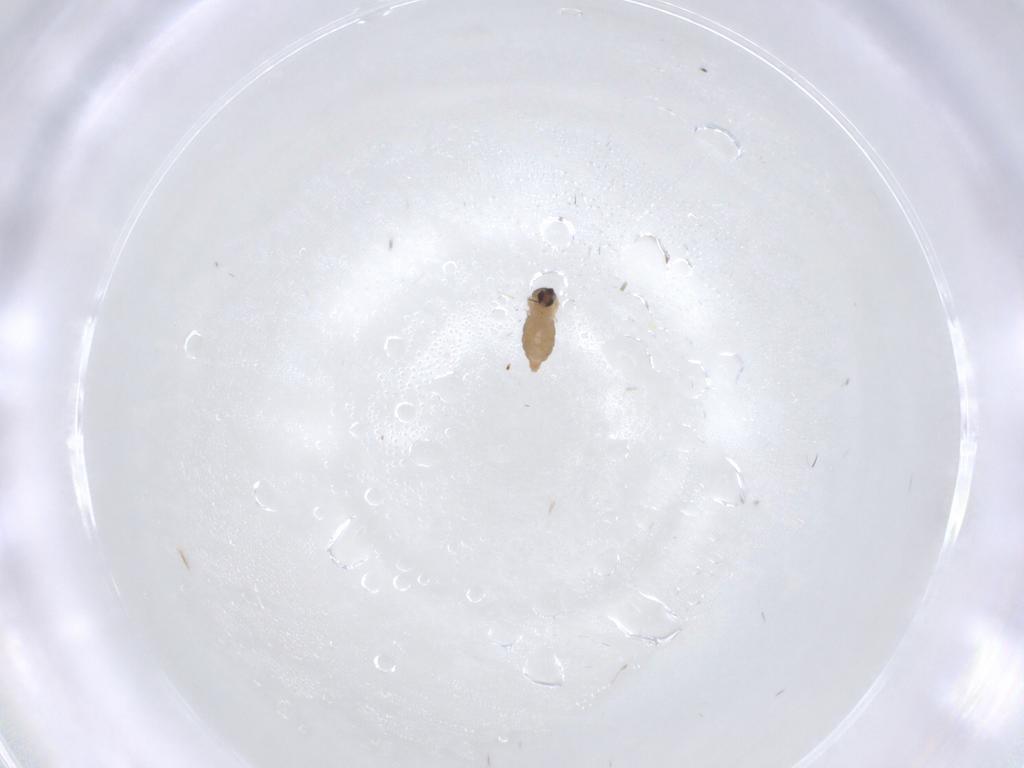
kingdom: Animalia
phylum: Arthropoda
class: Insecta
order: Diptera
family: Cecidomyiidae
